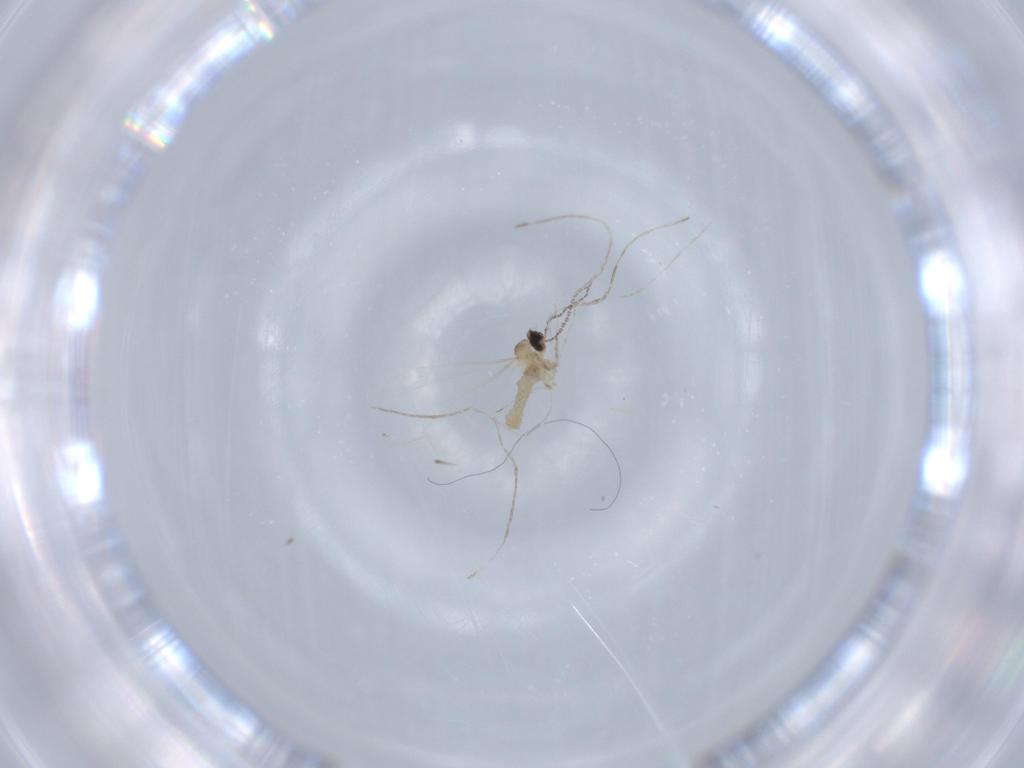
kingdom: Animalia
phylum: Arthropoda
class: Insecta
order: Diptera
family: Cecidomyiidae
